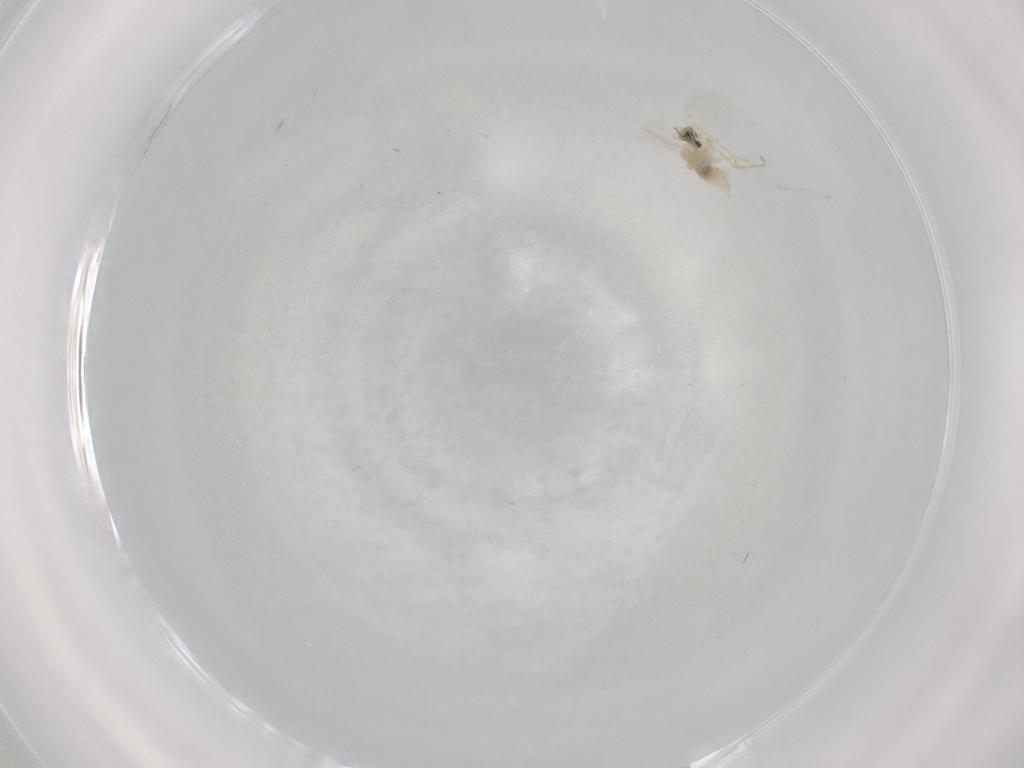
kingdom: Animalia
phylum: Arthropoda
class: Insecta
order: Diptera
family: Cecidomyiidae
